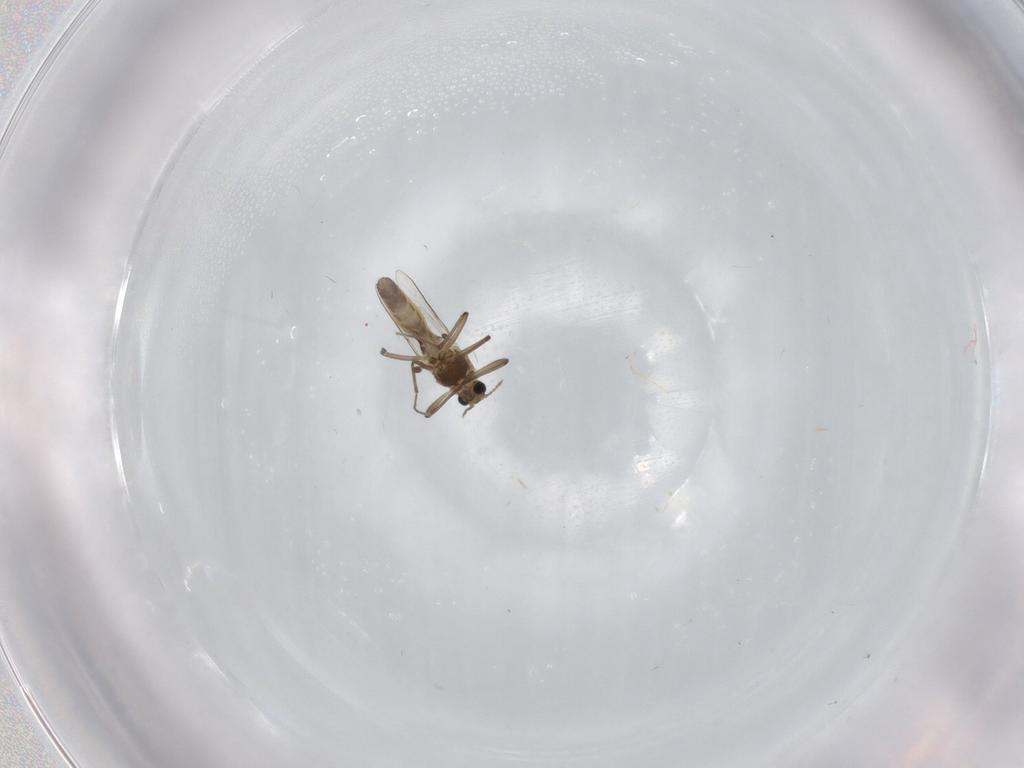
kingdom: Animalia
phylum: Arthropoda
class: Insecta
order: Diptera
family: Chironomidae
